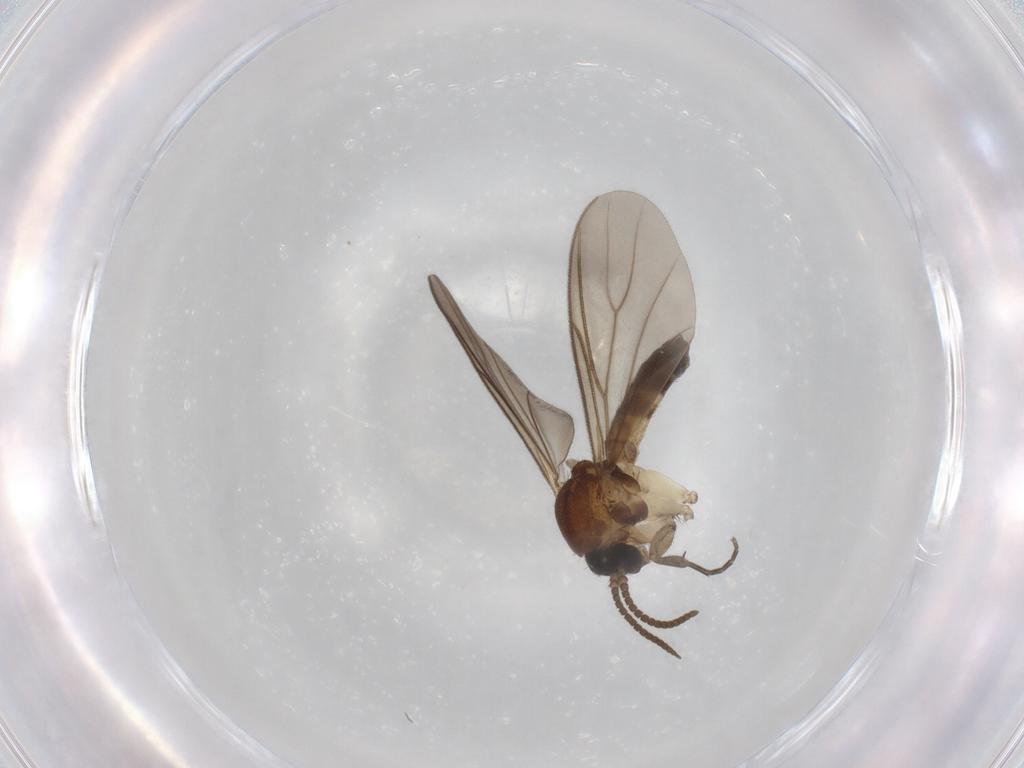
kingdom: Animalia
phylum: Arthropoda
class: Insecta
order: Diptera
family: Mycetophilidae
